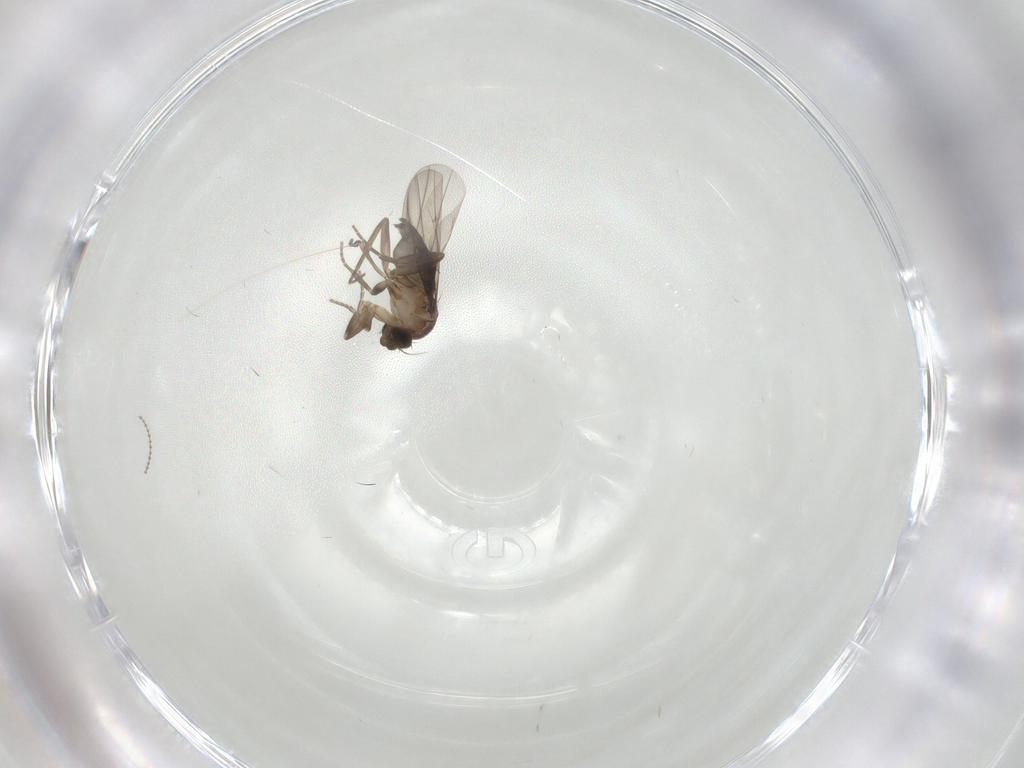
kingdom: Animalia
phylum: Arthropoda
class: Insecta
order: Diptera
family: Phoridae
